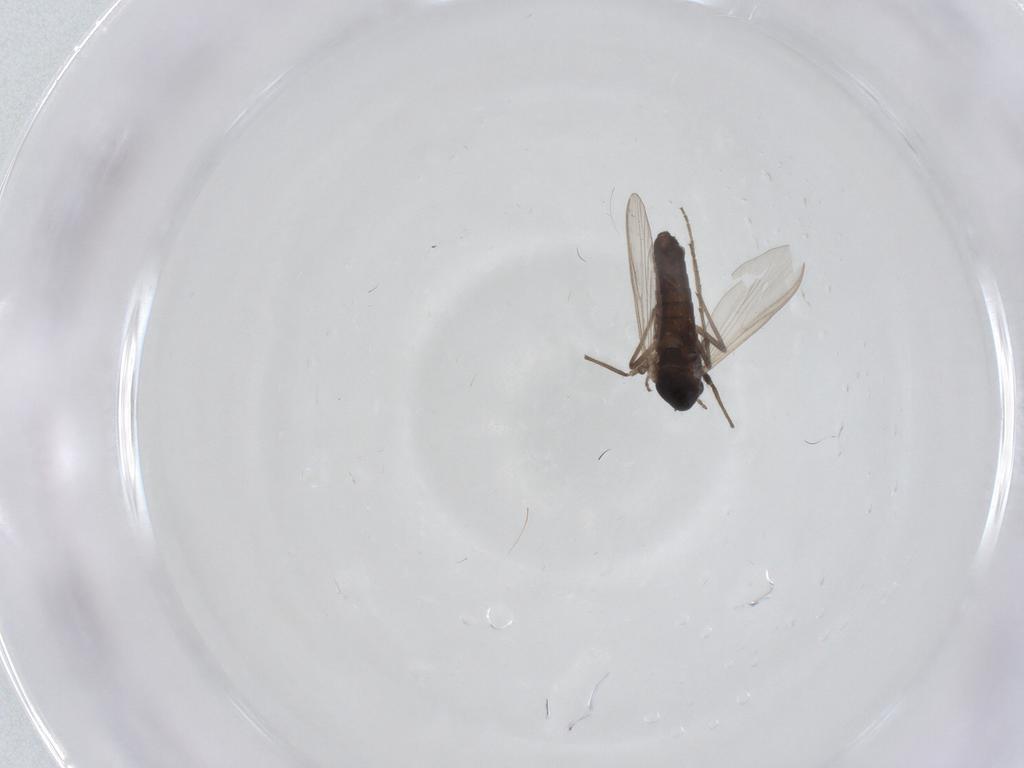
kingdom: Animalia
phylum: Arthropoda
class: Insecta
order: Diptera
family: Chironomidae
